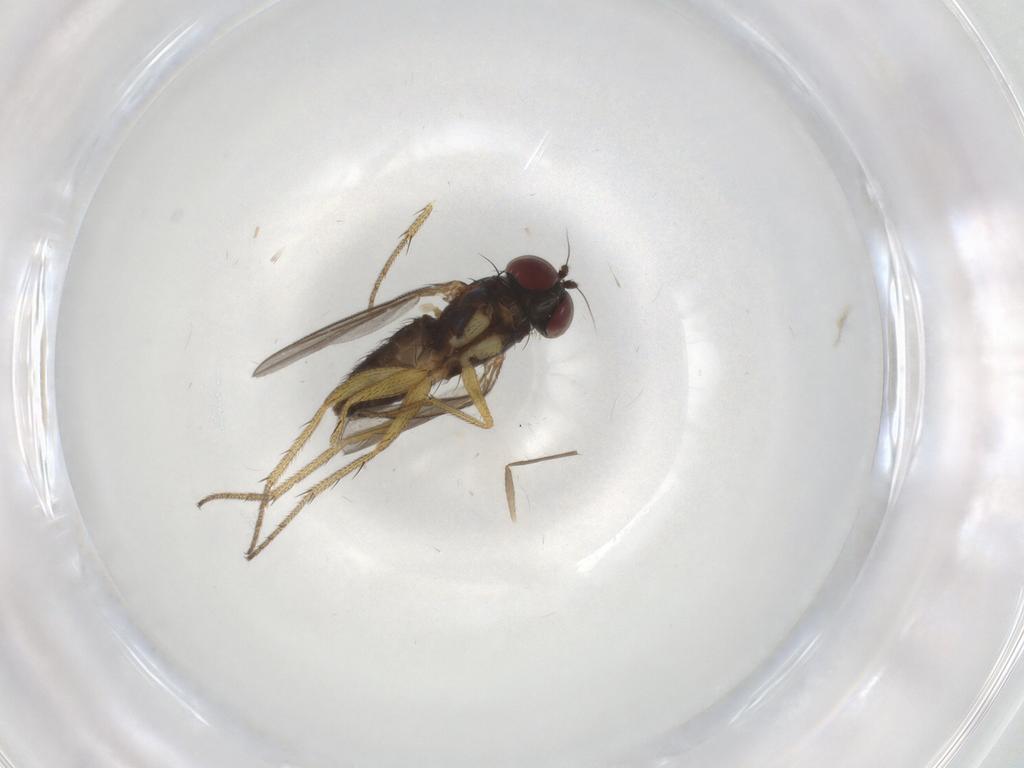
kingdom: Animalia
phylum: Arthropoda
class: Insecta
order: Diptera
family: Dolichopodidae
